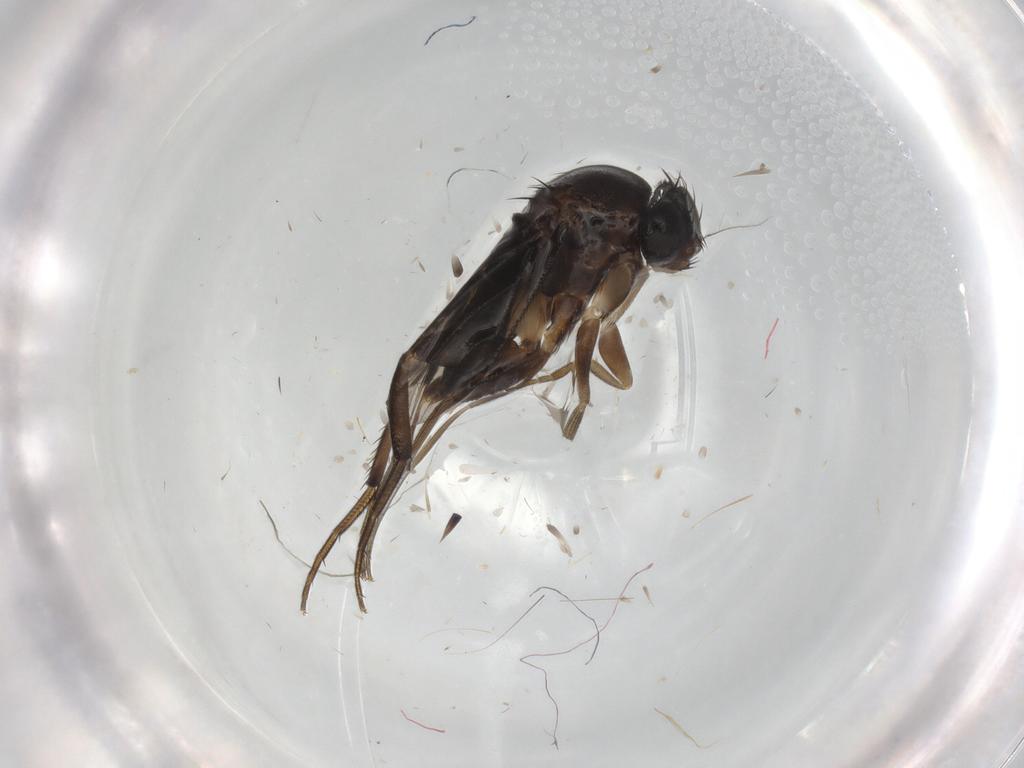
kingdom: Animalia
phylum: Arthropoda
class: Insecta
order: Diptera
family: Phoridae
